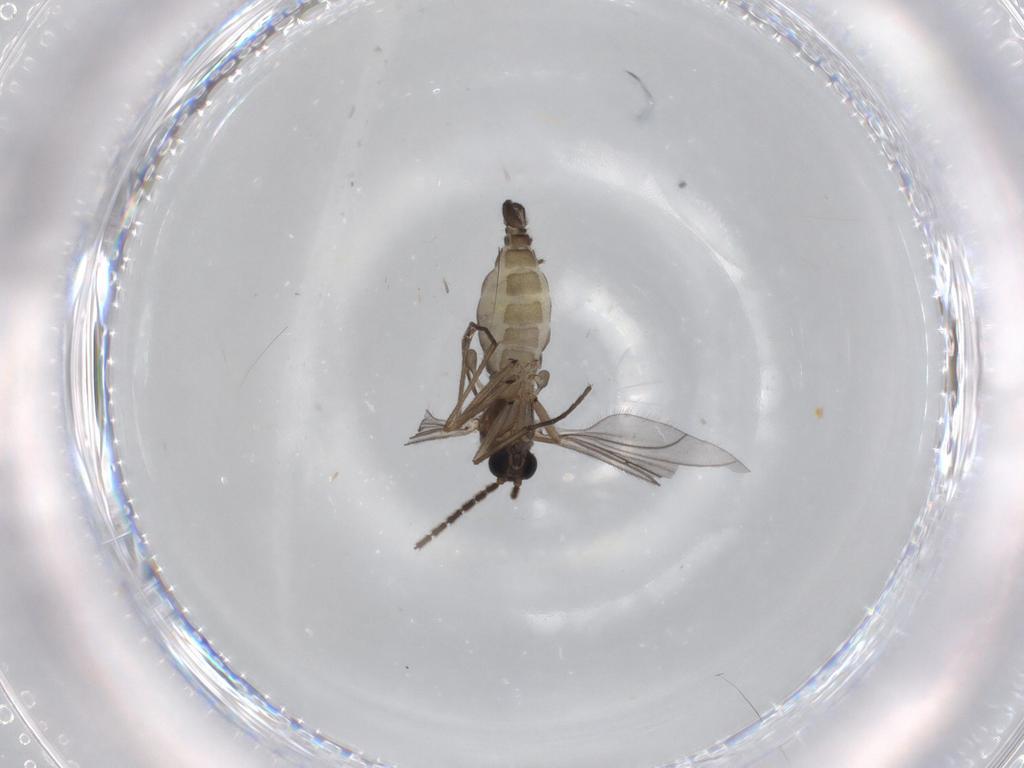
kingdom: Animalia
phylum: Arthropoda
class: Insecta
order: Diptera
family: Sciaridae
